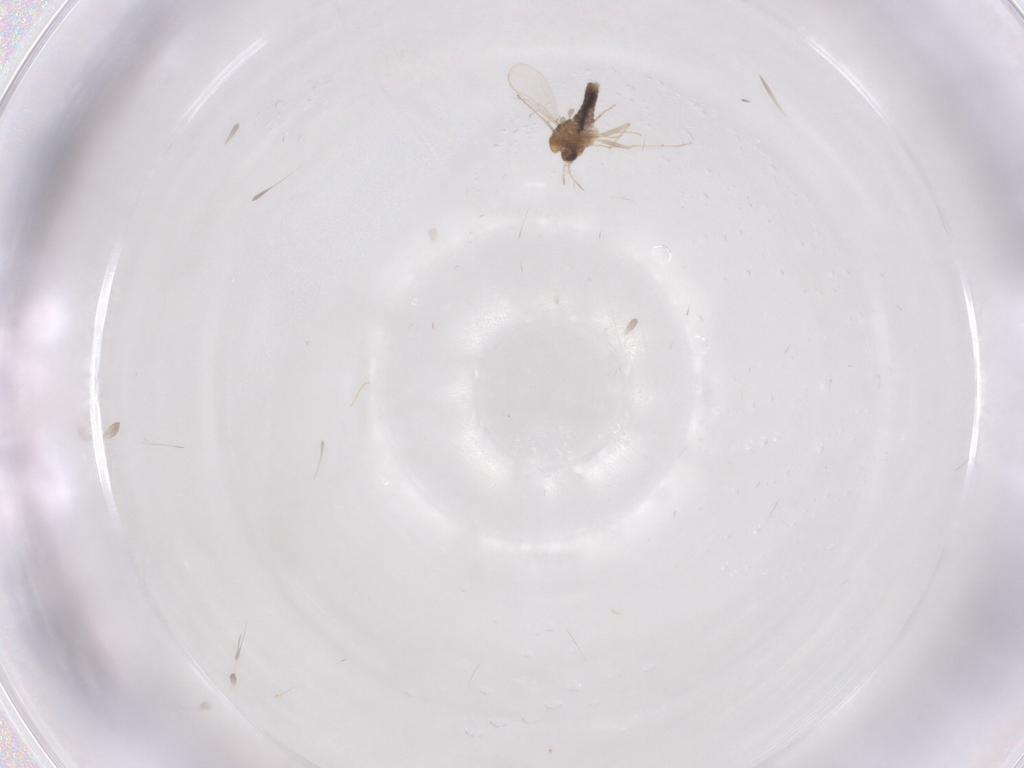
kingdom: Animalia
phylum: Arthropoda
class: Insecta
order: Diptera
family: Chironomidae
